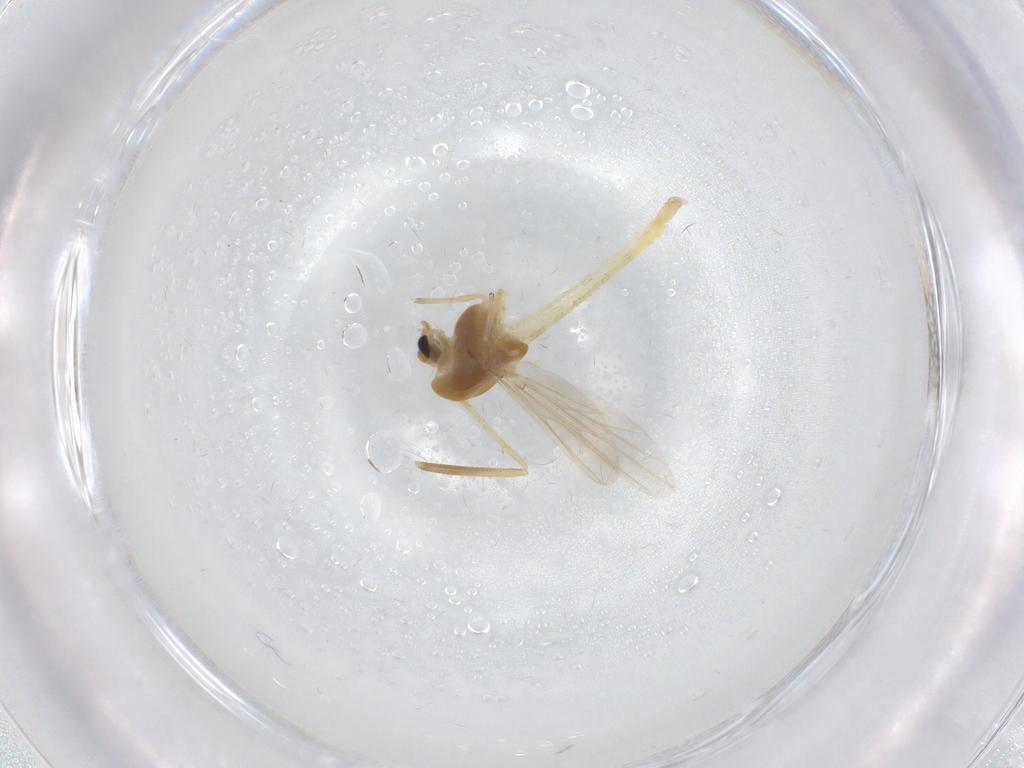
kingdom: Animalia
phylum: Arthropoda
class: Insecta
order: Diptera
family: Chironomidae
